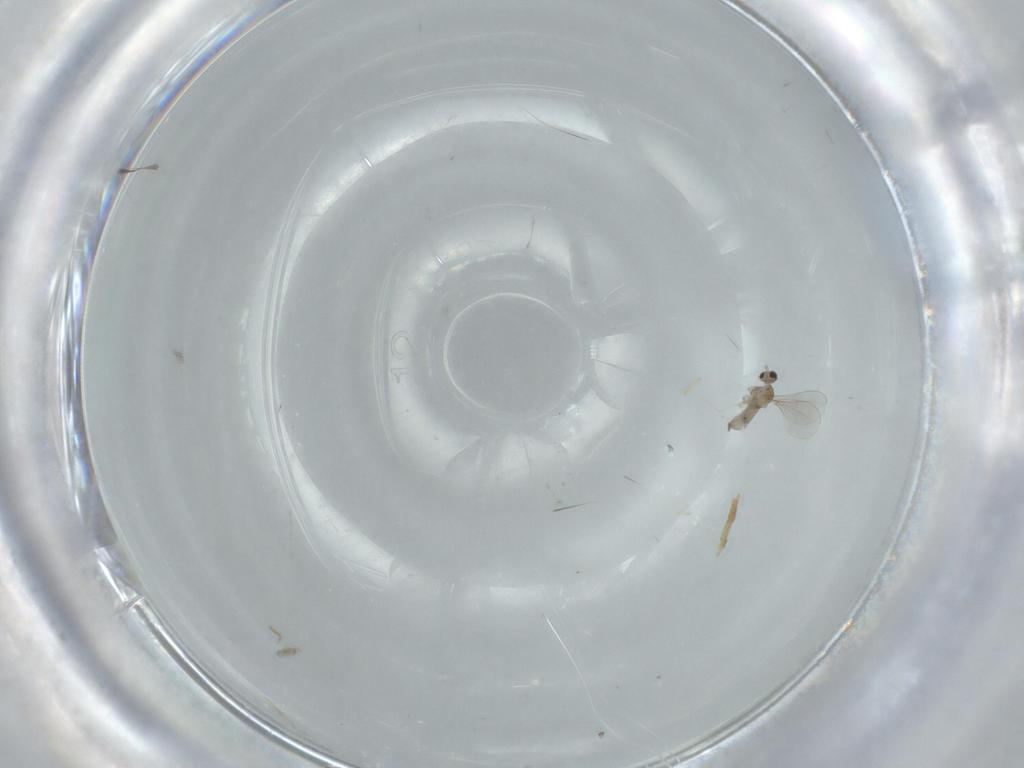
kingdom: Animalia
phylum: Arthropoda
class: Insecta
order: Diptera
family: Cecidomyiidae
